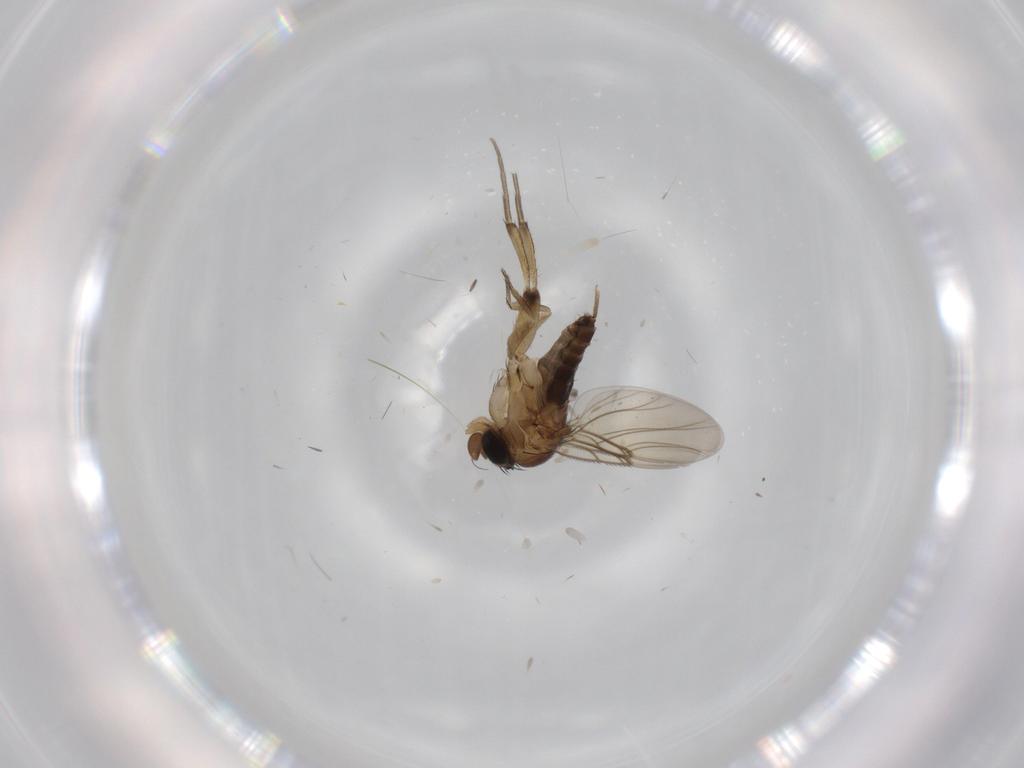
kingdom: Animalia
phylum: Arthropoda
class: Insecta
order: Diptera
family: Phoridae
